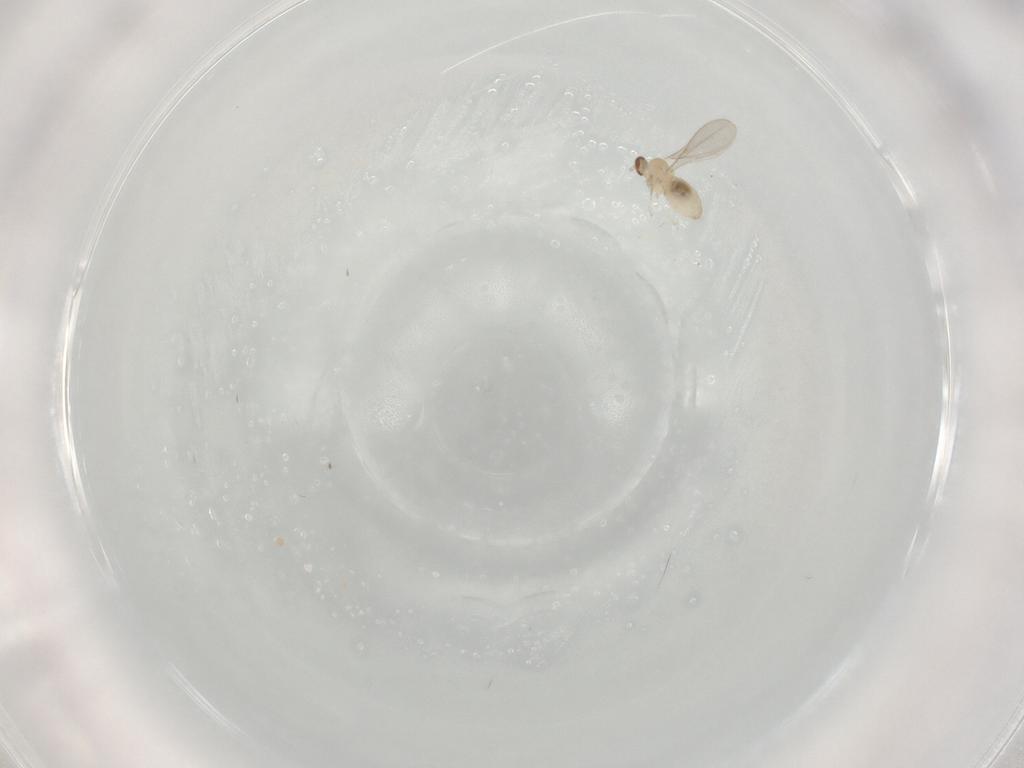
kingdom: Animalia
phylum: Arthropoda
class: Insecta
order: Diptera
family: Cecidomyiidae
